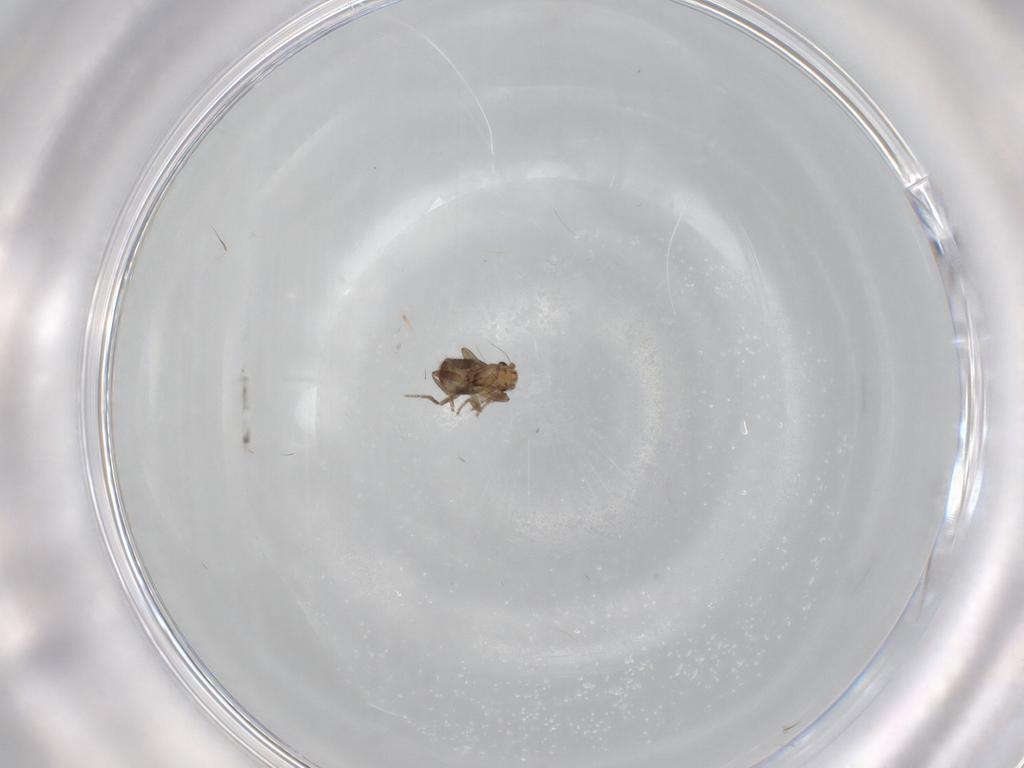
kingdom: Animalia
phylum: Arthropoda
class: Insecta
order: Diptera
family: Phoridae
